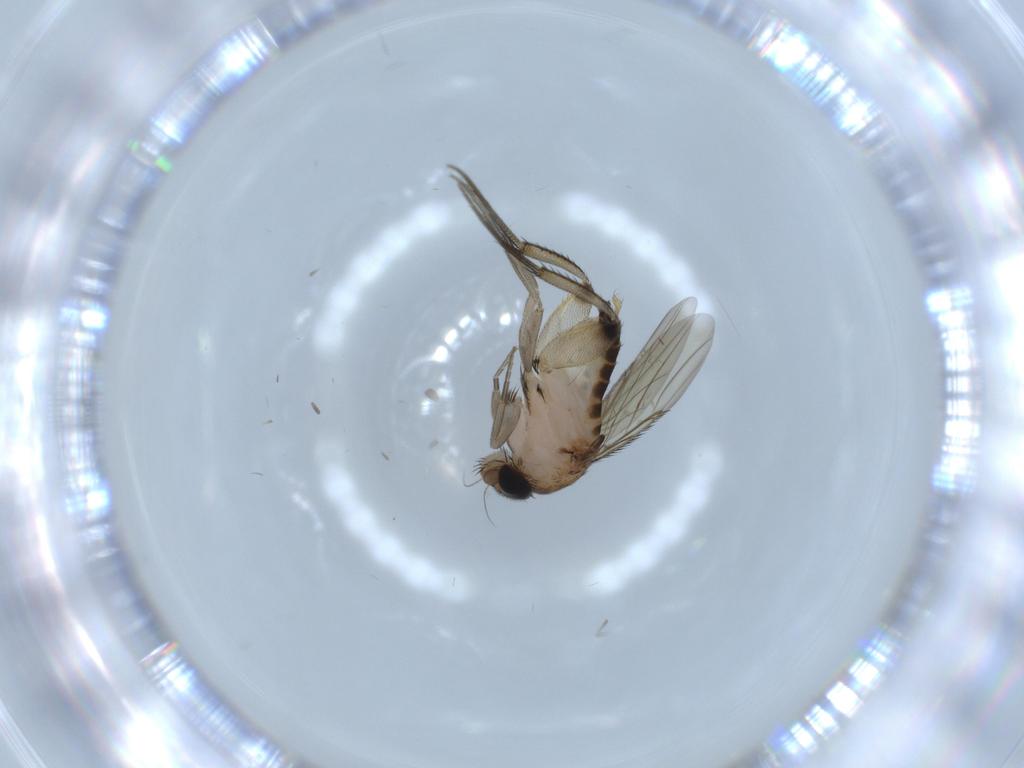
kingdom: Animalia
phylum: Arthropoda
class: Insecta
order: Diptera
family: Phoridae
